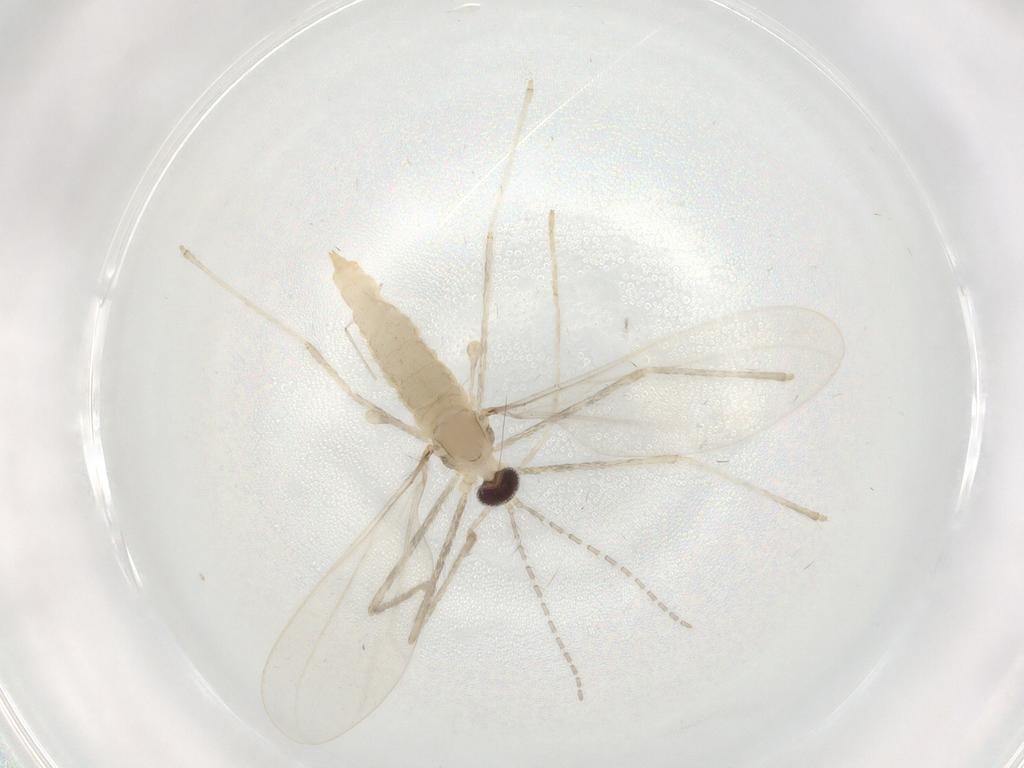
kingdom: Animalia
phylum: Arthropoda
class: Insecta
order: Diptera
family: Cecidomyiidae
